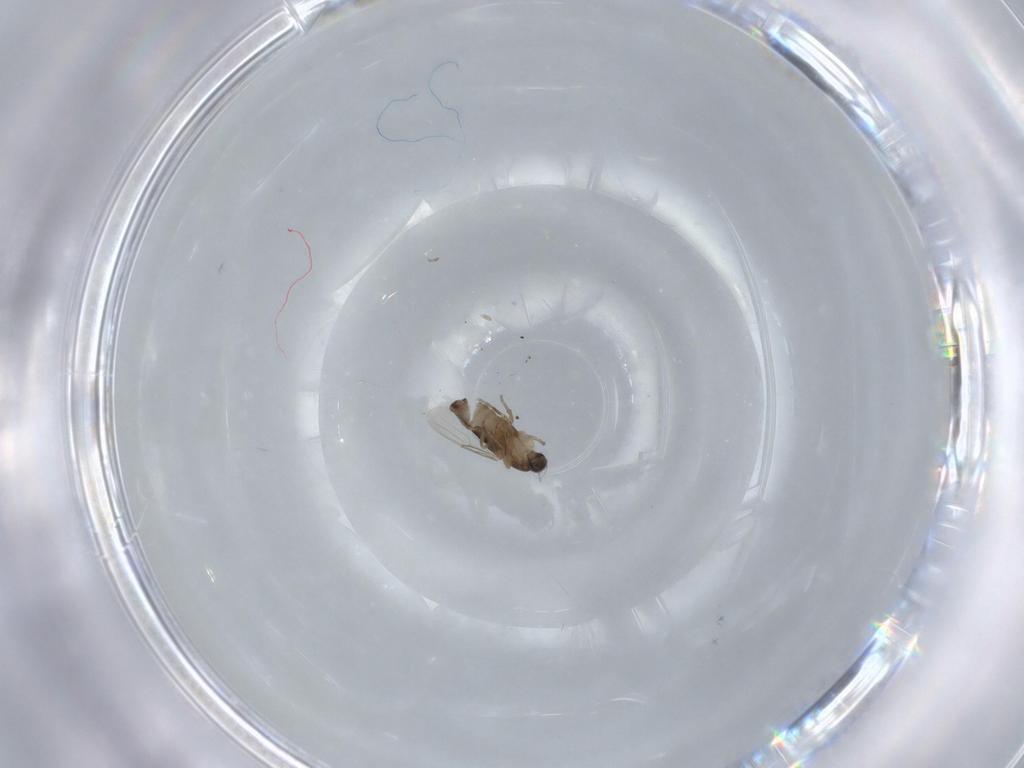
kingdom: Animalia
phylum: Arthropoda
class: Insecta
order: Diptera
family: Phoridae
